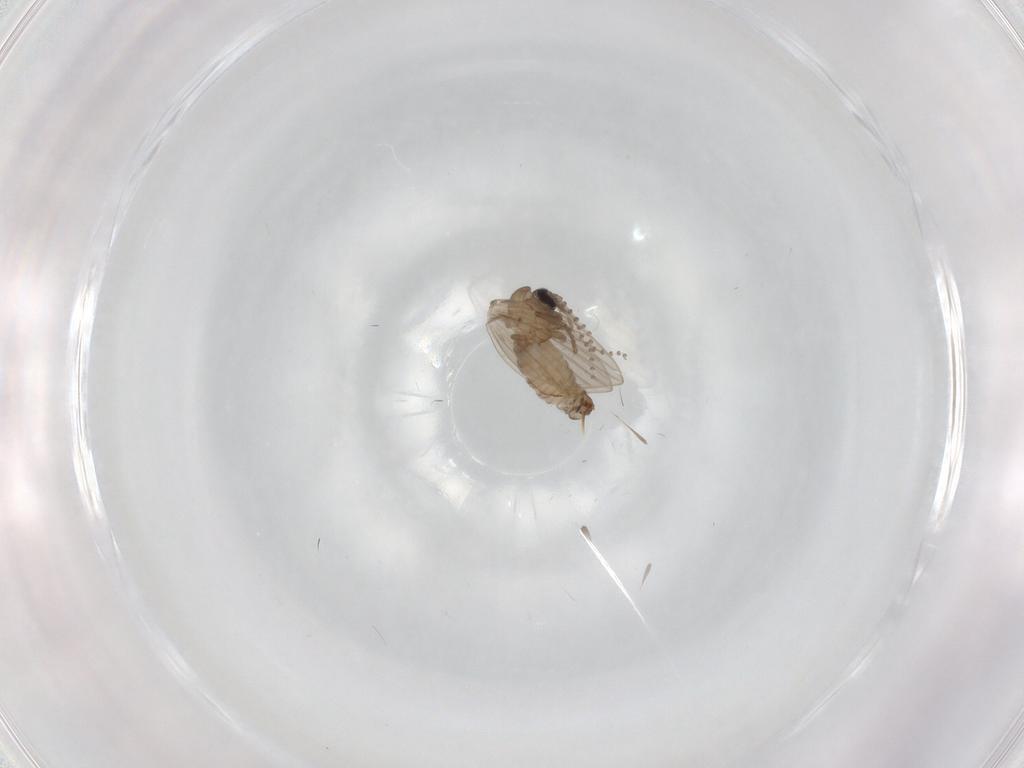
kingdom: Animalia
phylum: Arthropoda
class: Insecta
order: Diptera
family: Psychodidae
